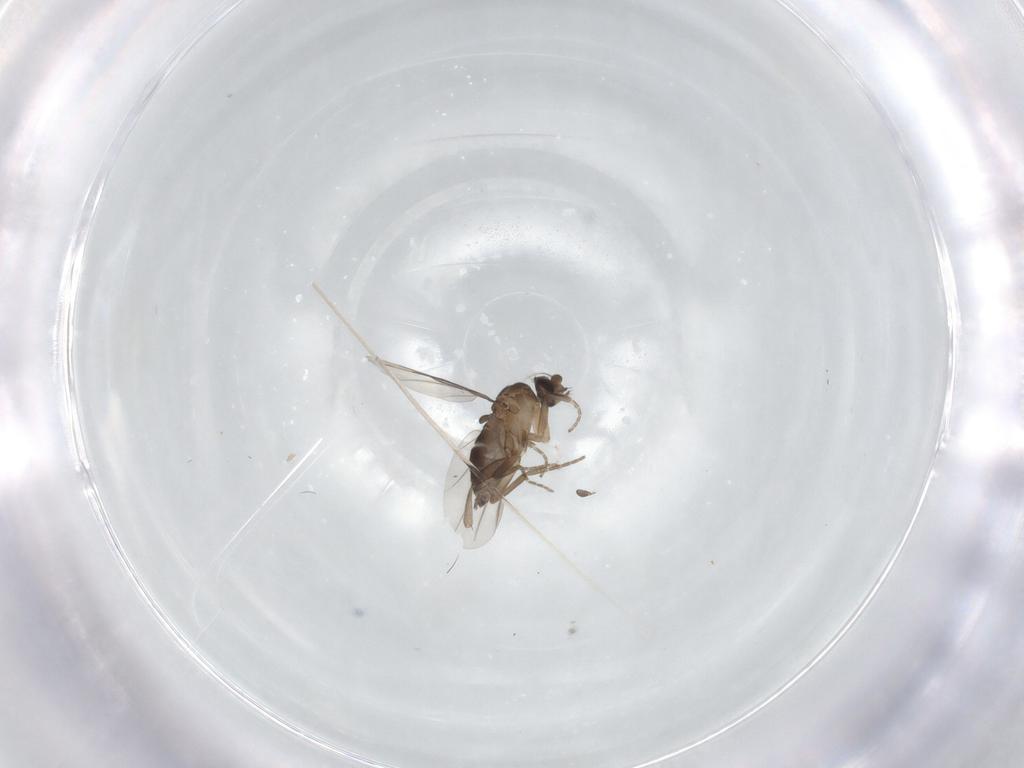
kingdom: Animalia
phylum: Arthropoda
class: Insecta
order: Diptera
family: Phoridae
